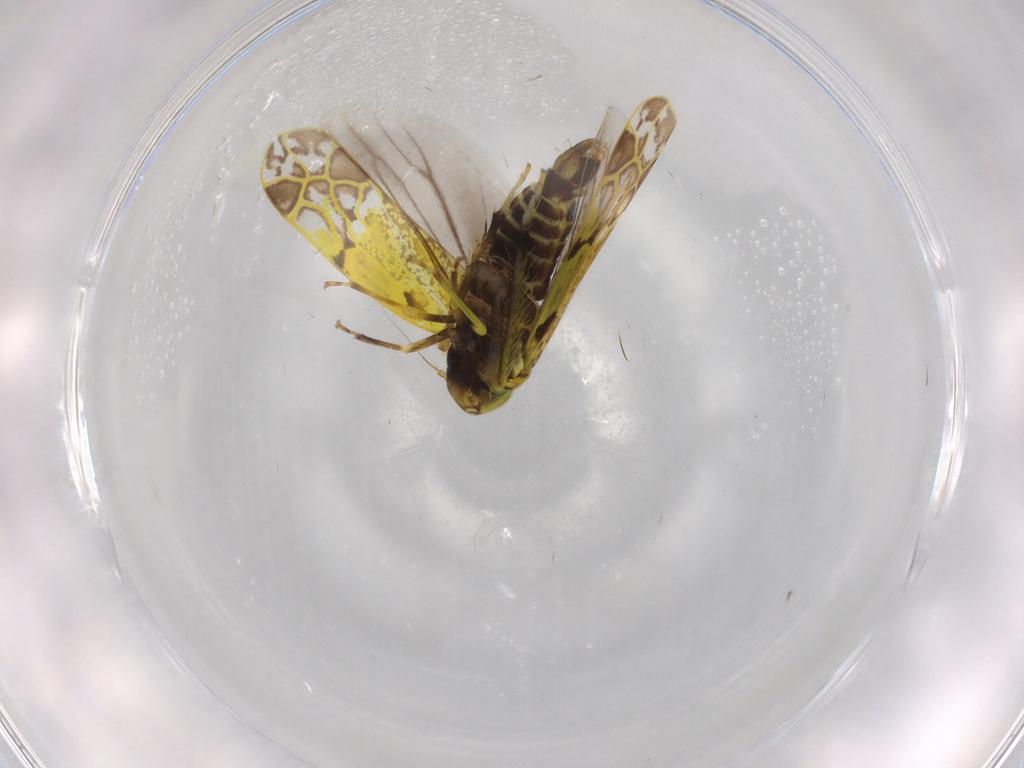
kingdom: Animalia
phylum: Arthropoda
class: Insecta
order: Hemiptera
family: Cicadellidae
